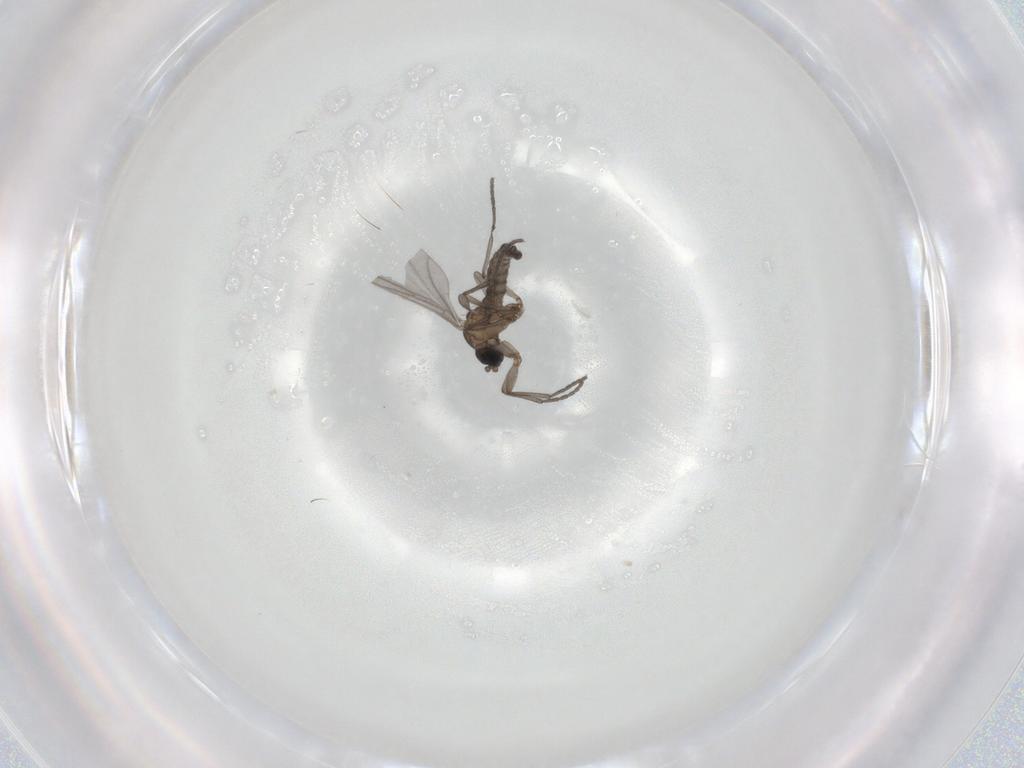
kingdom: Animalia
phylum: Arthropoda
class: Insecta
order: Diptera
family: Sciaridae
